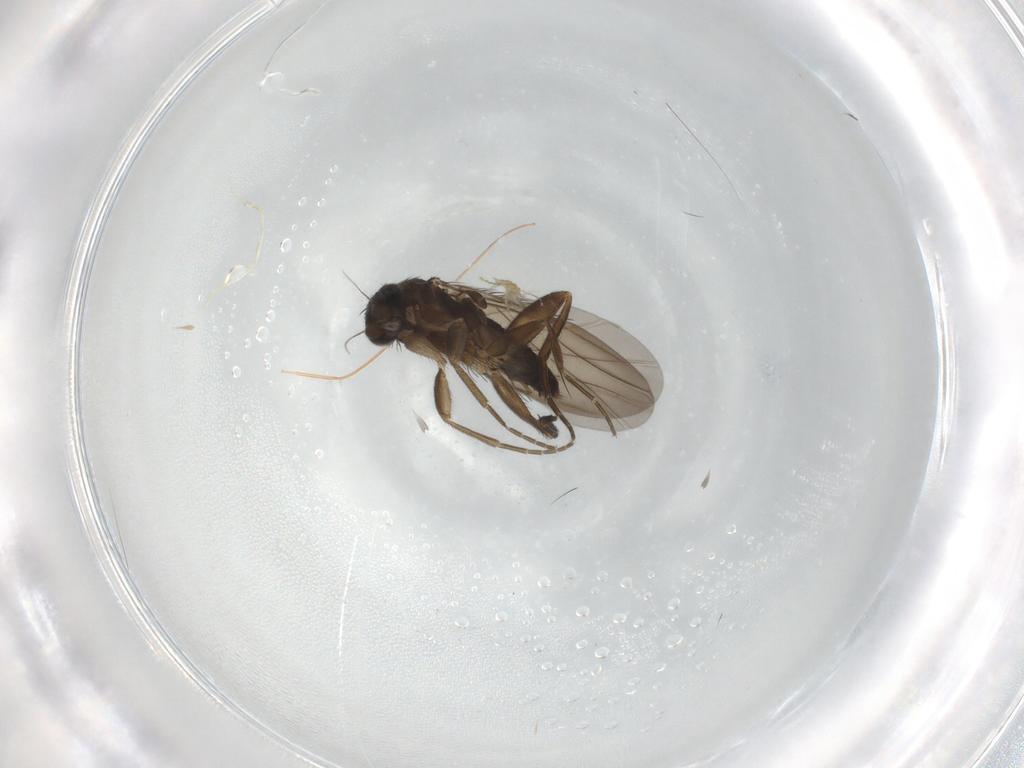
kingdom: Animalia
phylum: Arthropoda
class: Insecta
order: Diptera
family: Phoridae
